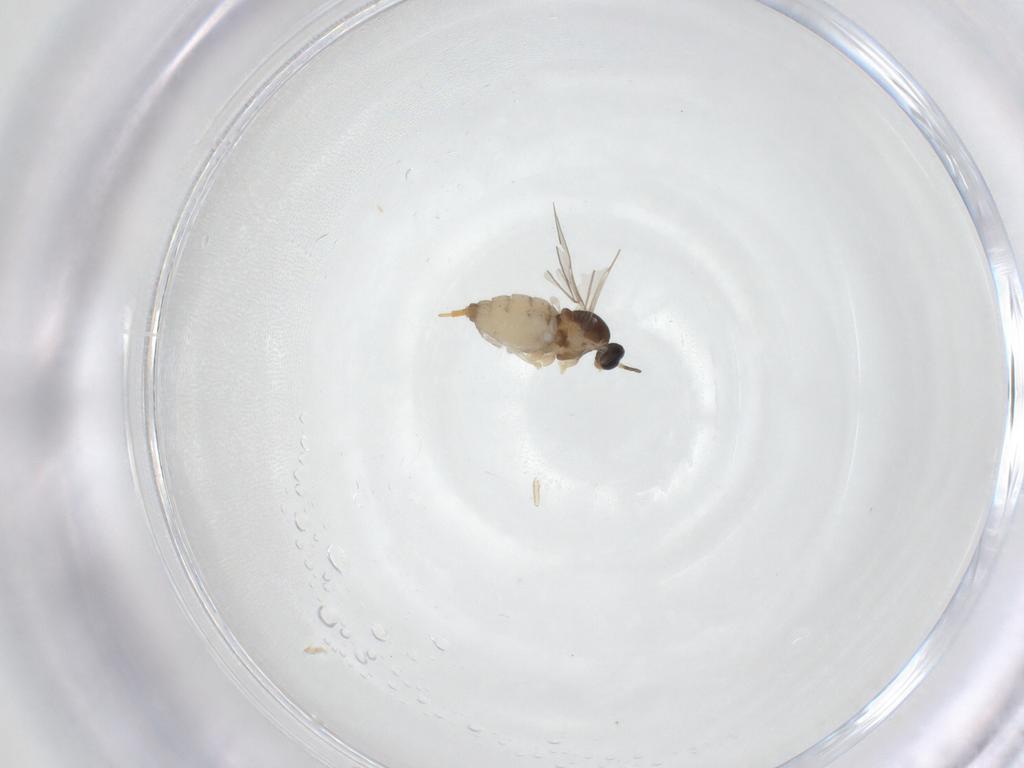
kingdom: Animalia
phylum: Arthropoda
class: Insecta
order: Diptera
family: Cecidomyiidae
